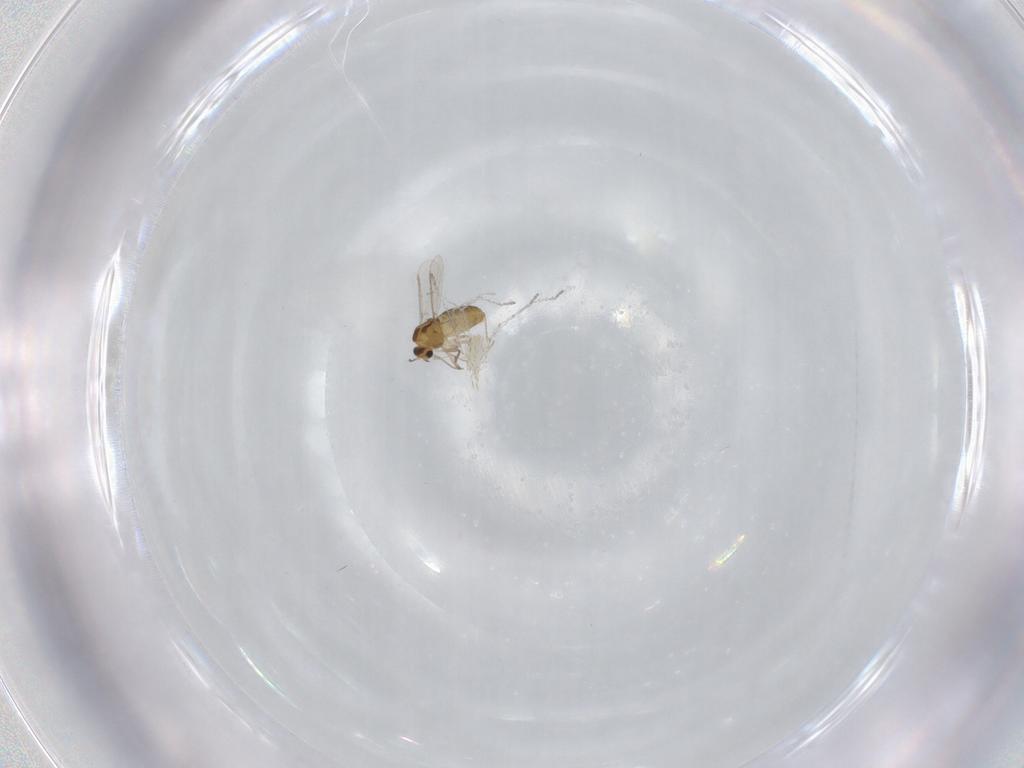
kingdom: Animalia
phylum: Arthropoda
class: Insecta
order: Diptera
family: Chironomidae
